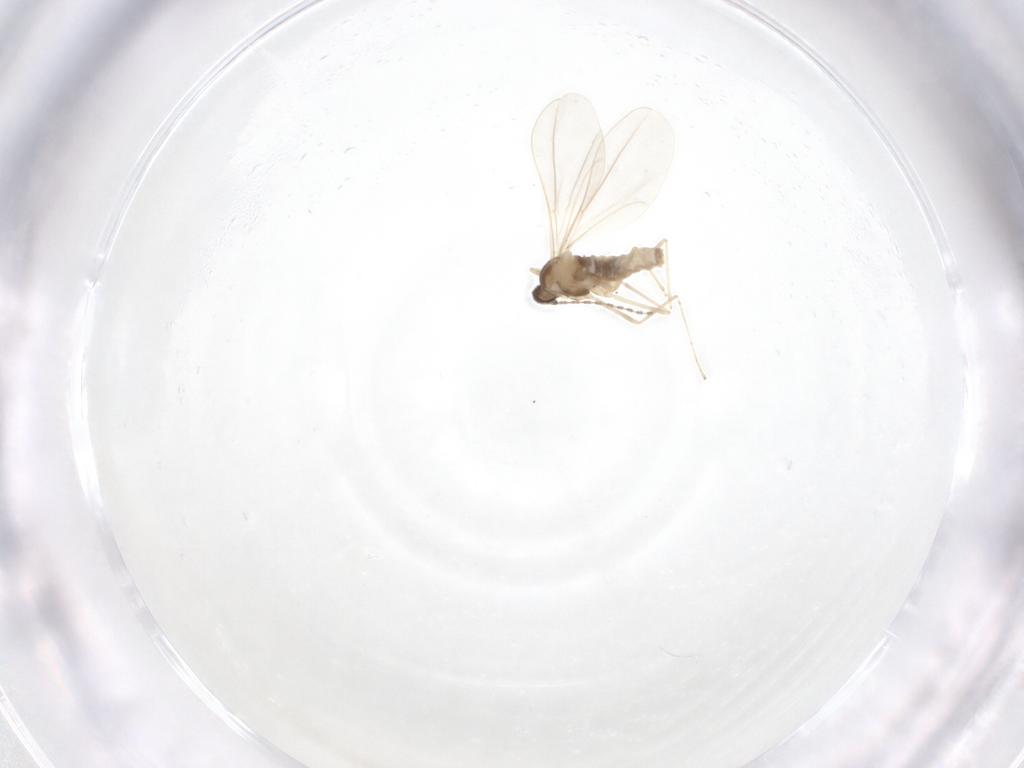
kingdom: Animalia
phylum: Arthropoda
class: Insecta
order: Diptera
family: Cecidomyiidae
